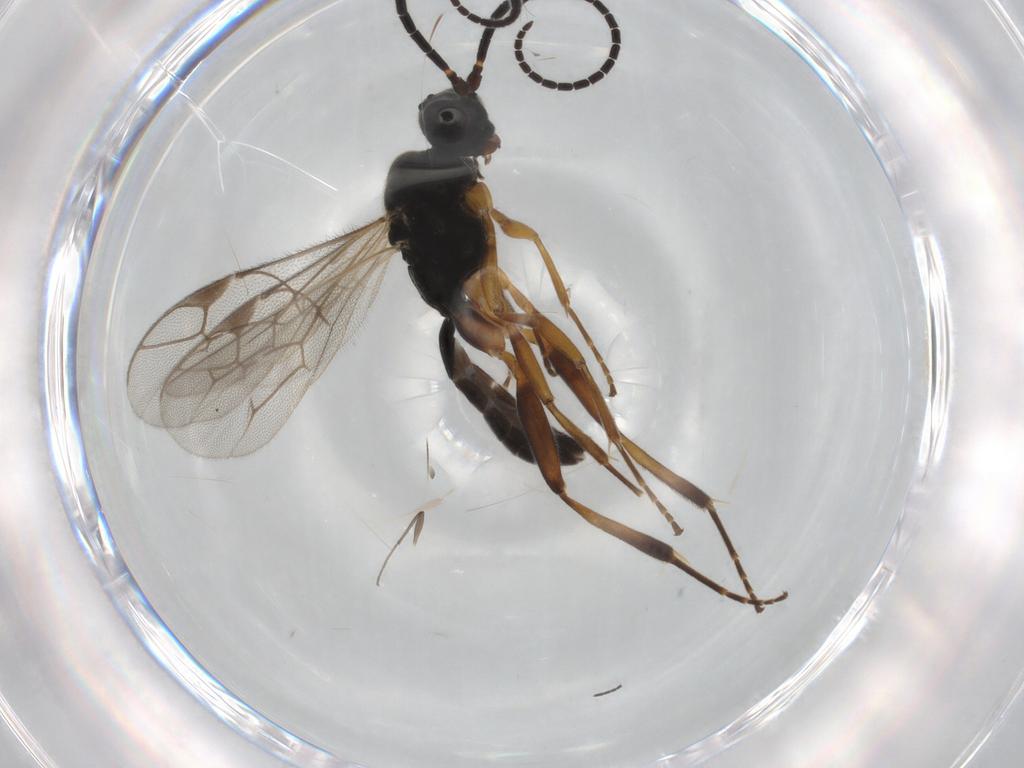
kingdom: Animalia
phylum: Arthropoda
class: Insecta
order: Hymenoptera
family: Ichneumonidae
